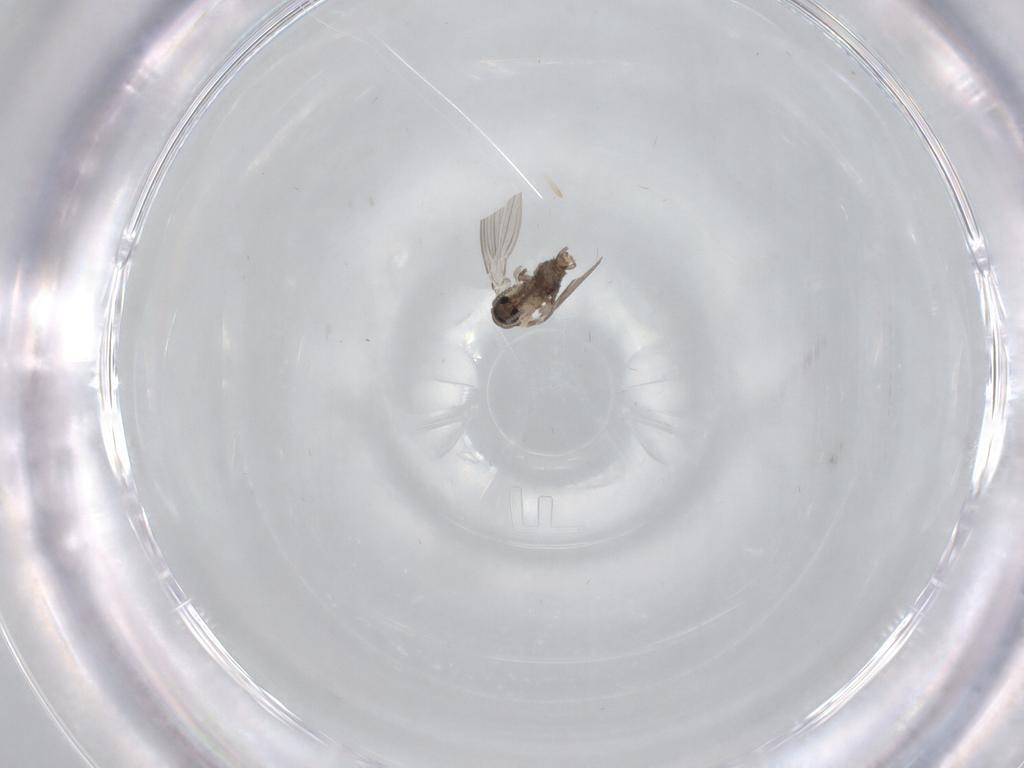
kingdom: Animalia
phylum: Arthropoda
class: Insecta
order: Diptera
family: Psychodidae
